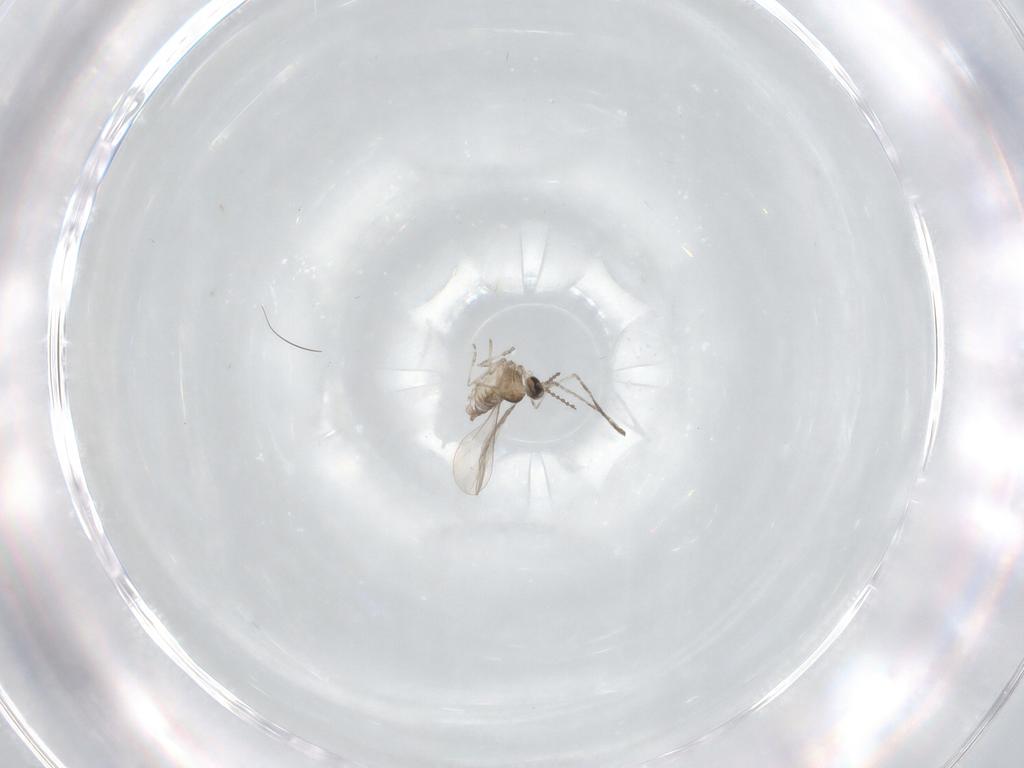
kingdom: Animalia
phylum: Arthropoda
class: Insecta
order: Diptera
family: Cecidomyiidae
